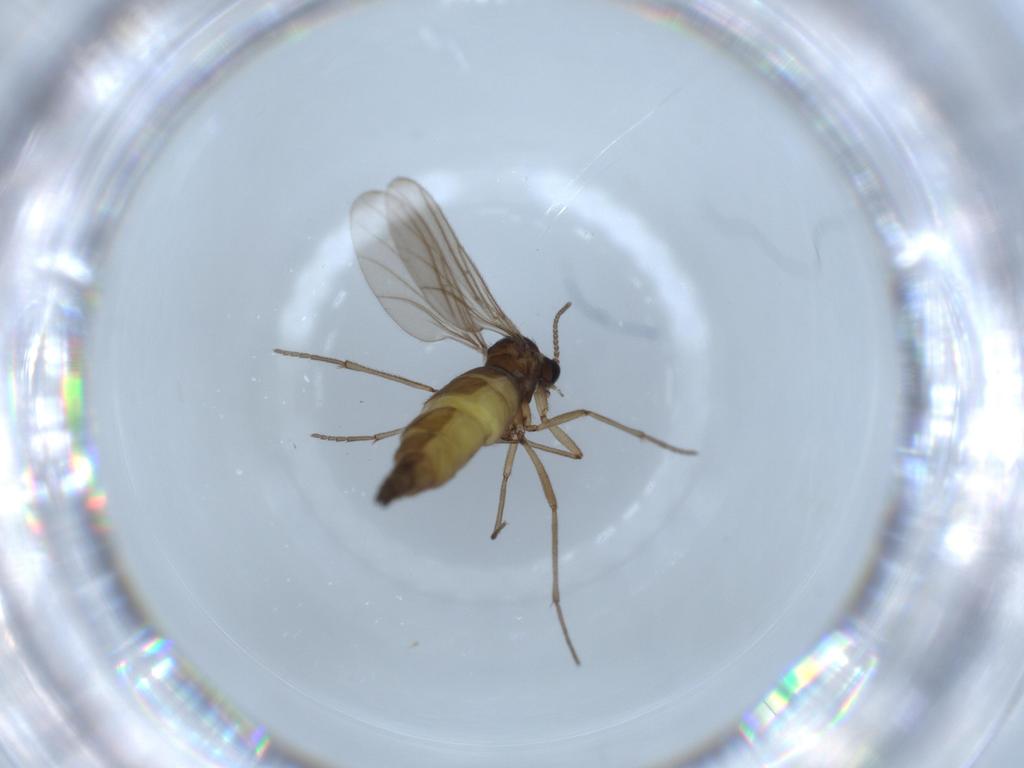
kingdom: Animalia
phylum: Arthropoda
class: Insecta
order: Diptera
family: Sciaridae
